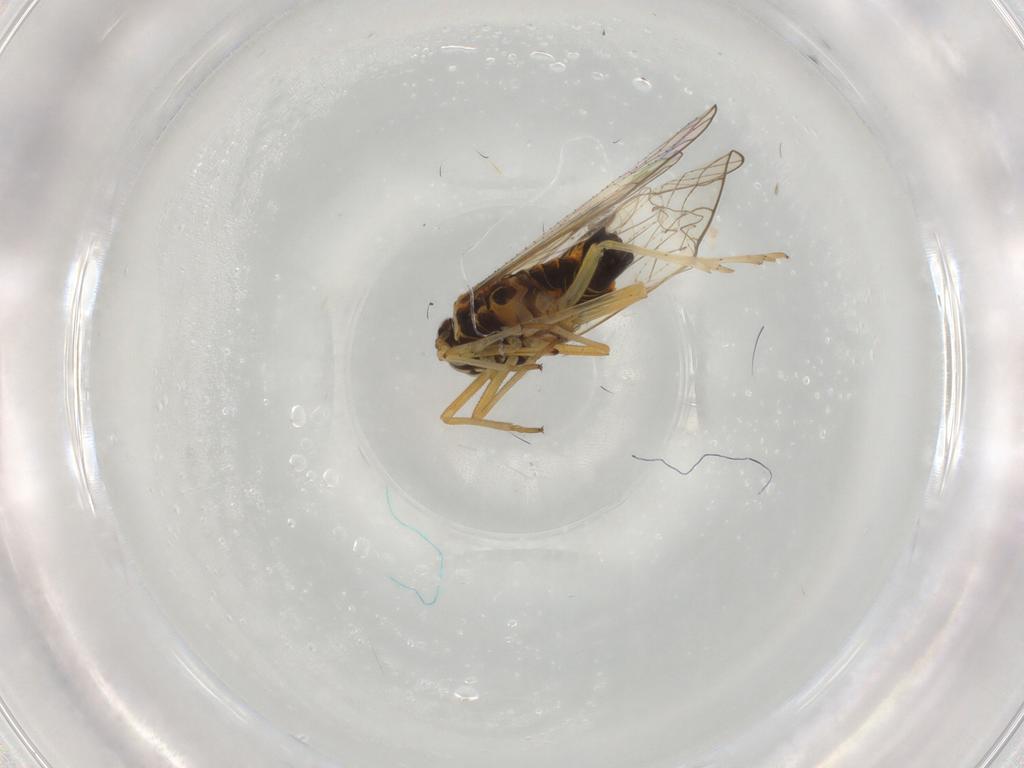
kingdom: Animalia
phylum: Arthropoda
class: Insecta
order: Hemiptera
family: Cicadellidae
